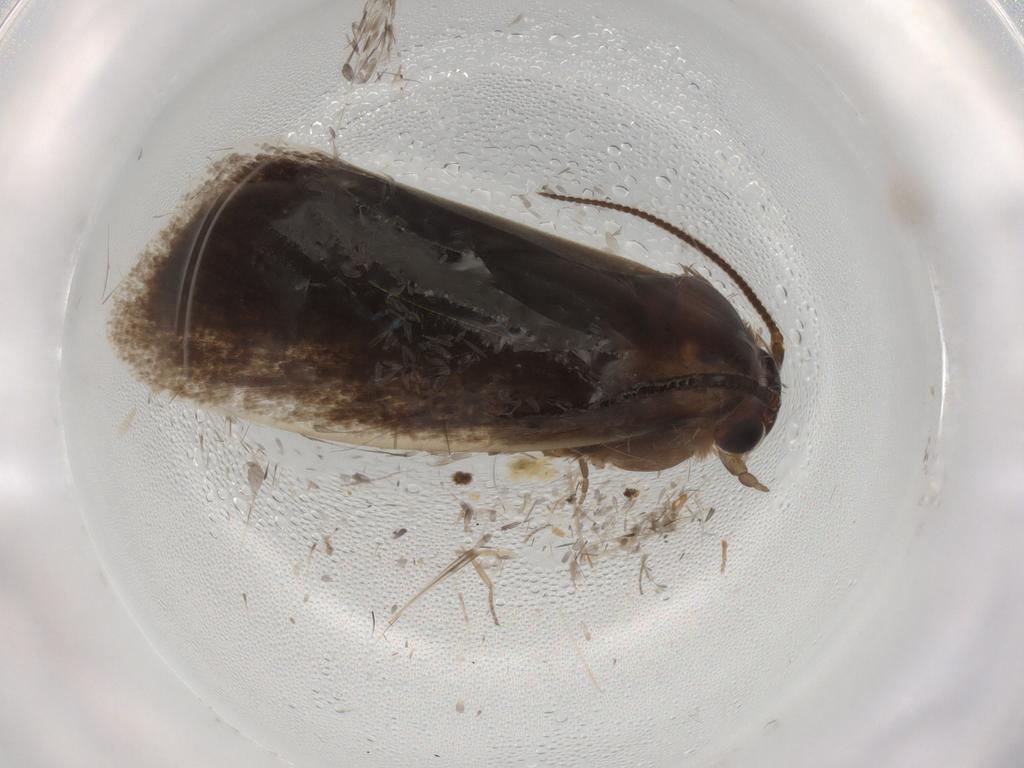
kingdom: Animalia
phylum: Arthropoda
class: Insecta
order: Lepidoptera
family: Tineidae
